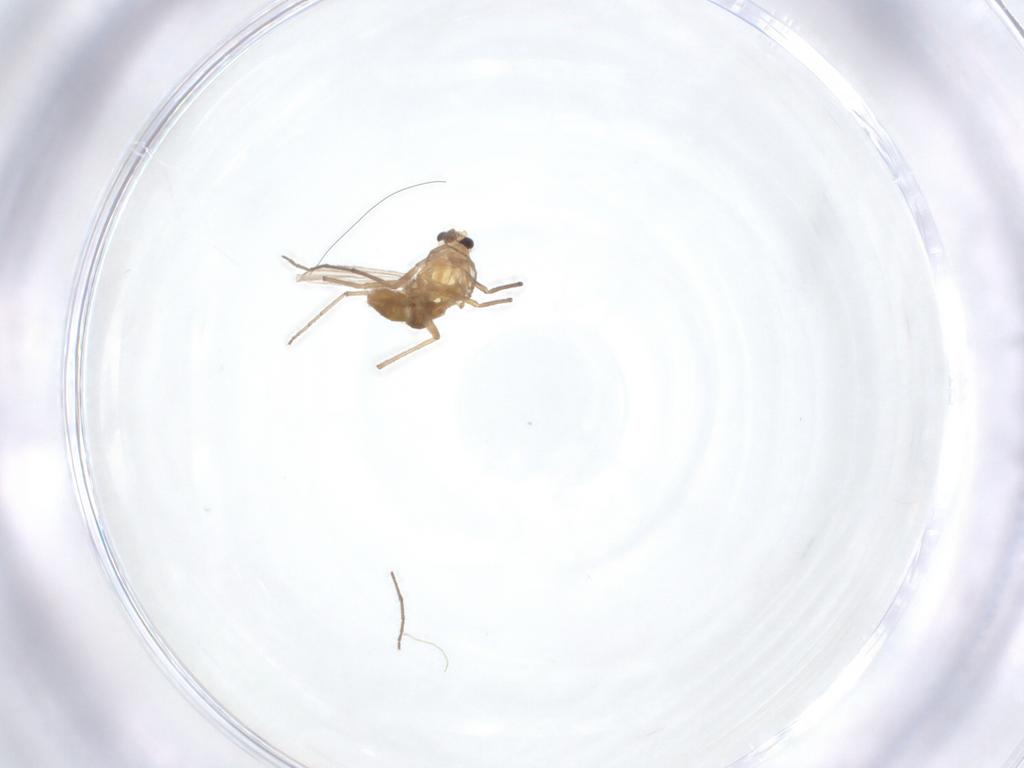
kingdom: Animalia
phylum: Arthropoda
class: Insecta
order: Diptera
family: Chironomidae
